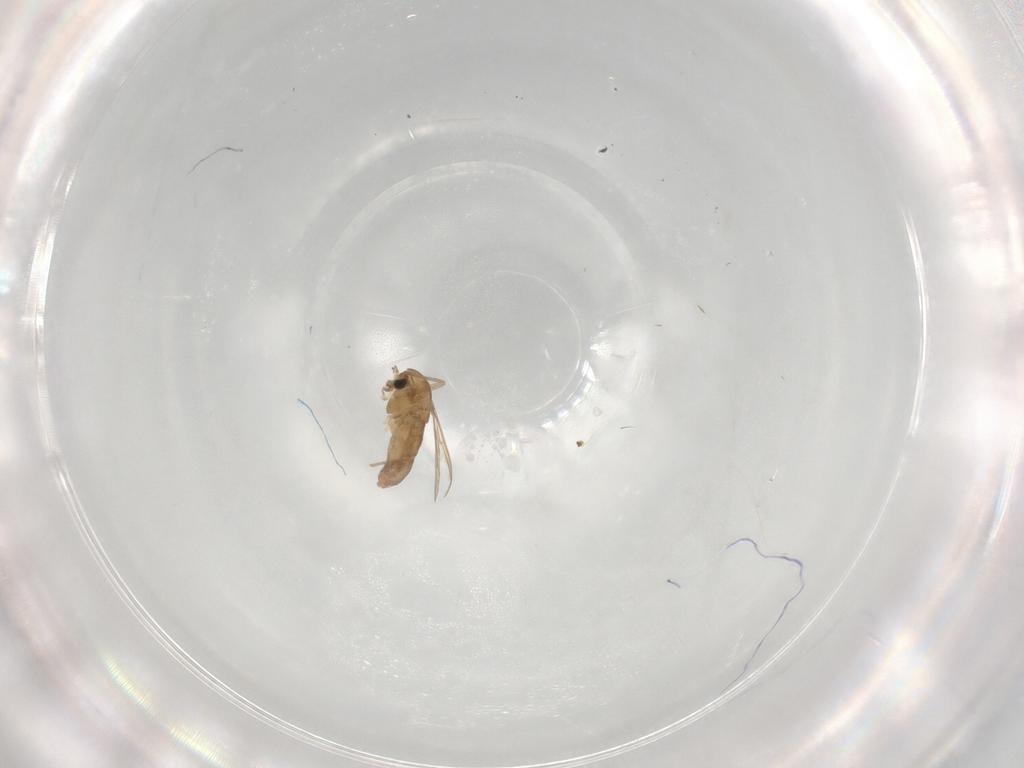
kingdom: Animalia
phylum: Arthropoda
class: Insecta
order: Diptera
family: Chironomidae
